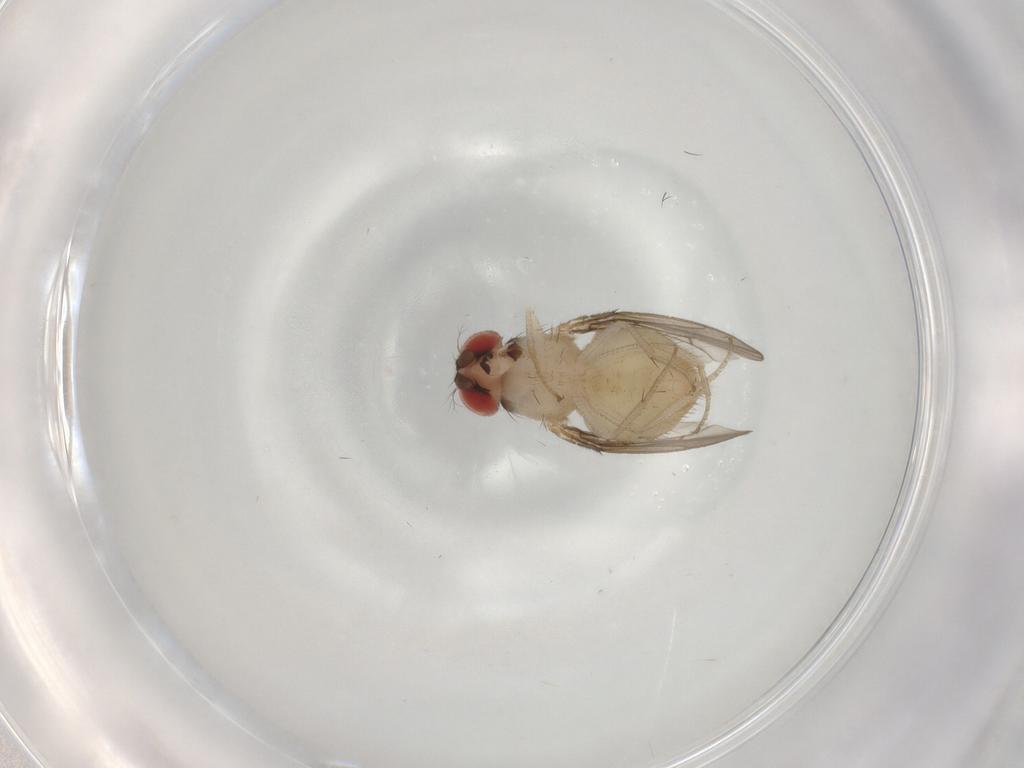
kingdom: Animalia
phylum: Arthropoda
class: Insecta
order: Diptera
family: Drosophilidae
